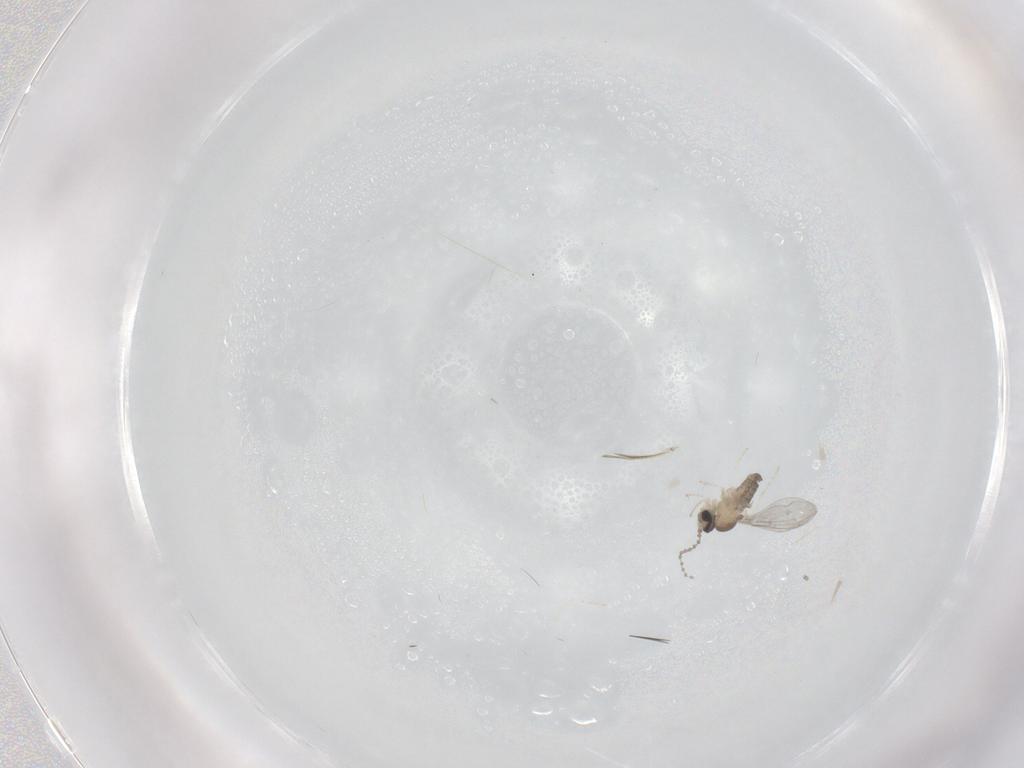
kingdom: Animalia
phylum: Arthropoda
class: Insecta
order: Diptera
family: Cecidomyiidae
